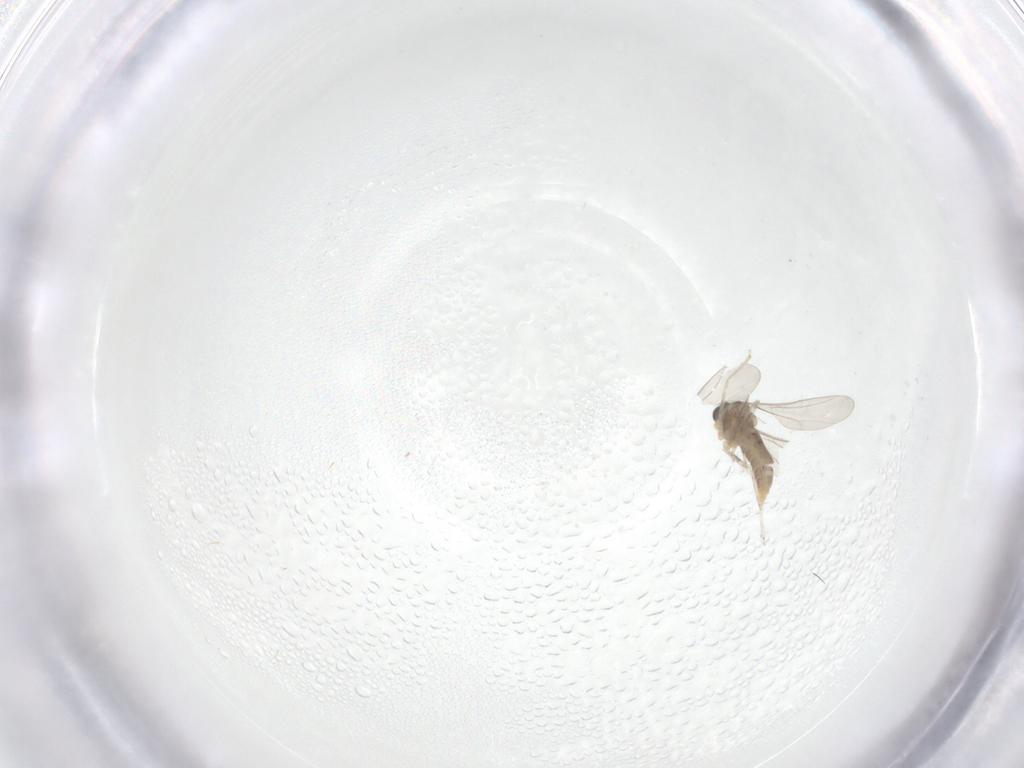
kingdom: Animalia
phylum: Arthropoda
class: Insecta
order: Diptera
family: Cecidomyiidae
